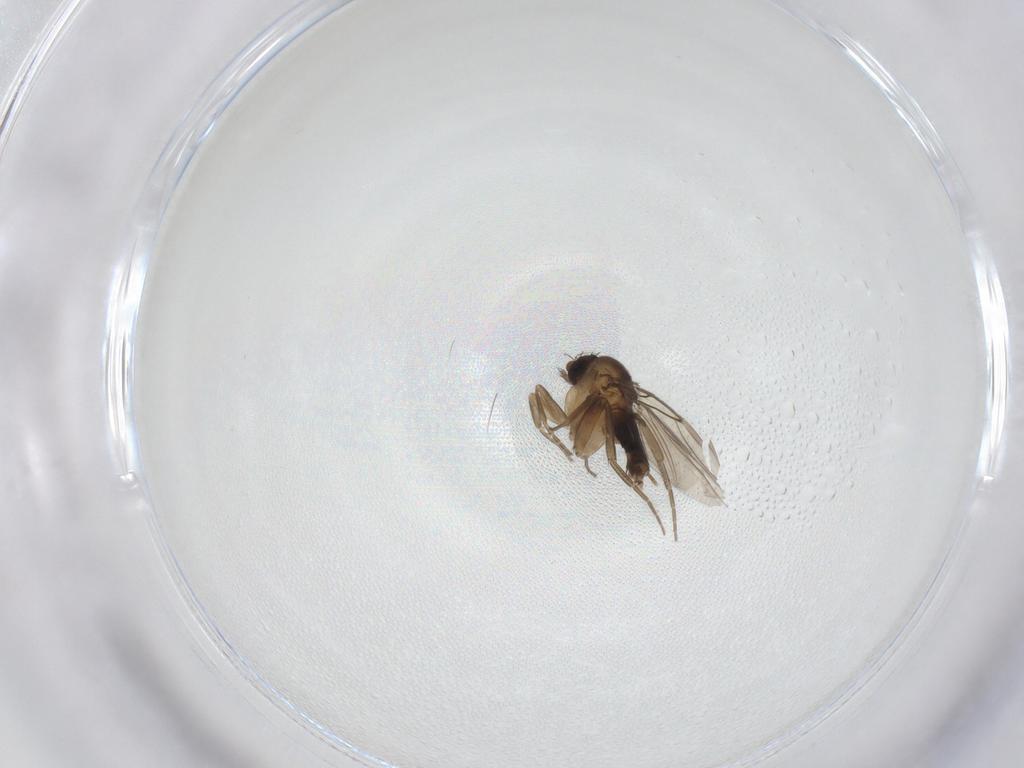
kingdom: Animalia
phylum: Arthropoda
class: Insecta
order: Diptera
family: Phoridae
